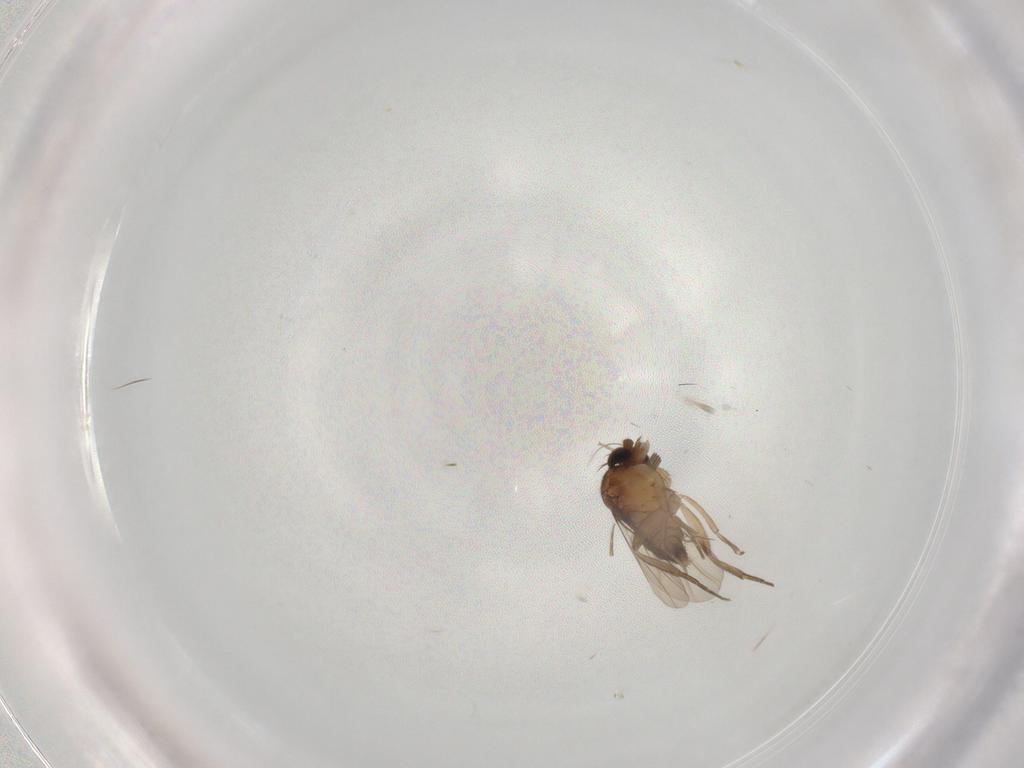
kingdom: Animalia
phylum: Arthropoda
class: Insecta
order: Diptera
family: Phoridae
